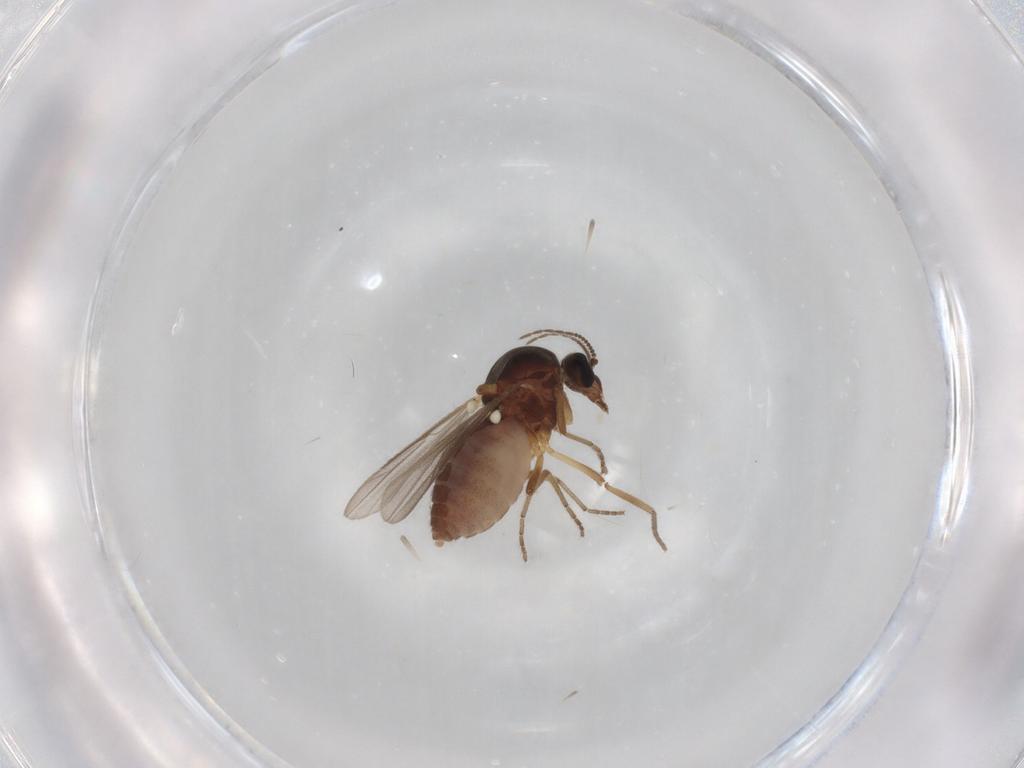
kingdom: Animalia
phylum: Arthropoda
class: Insecta
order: Diptera
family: Ceratopogonidae
